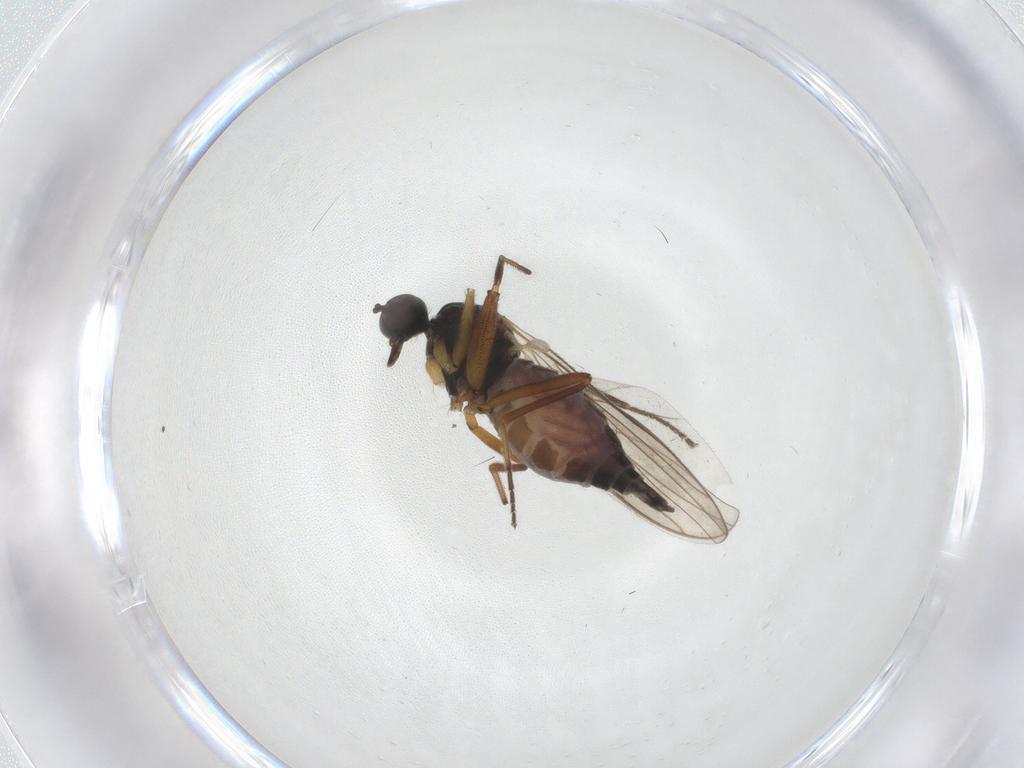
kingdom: Animalia
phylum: Arthropoda
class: Insecta
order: Diptera
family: Hybotidae
